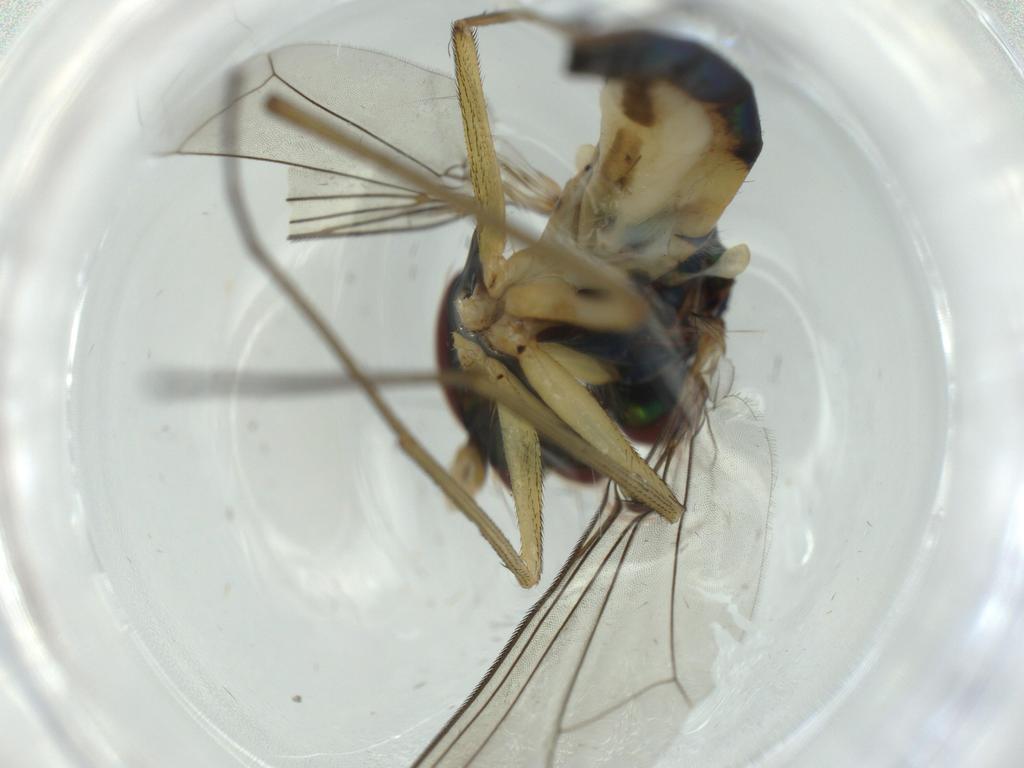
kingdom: Animalia
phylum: Arthropoda
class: Insecta
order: Diptera
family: Dolichopodidae
